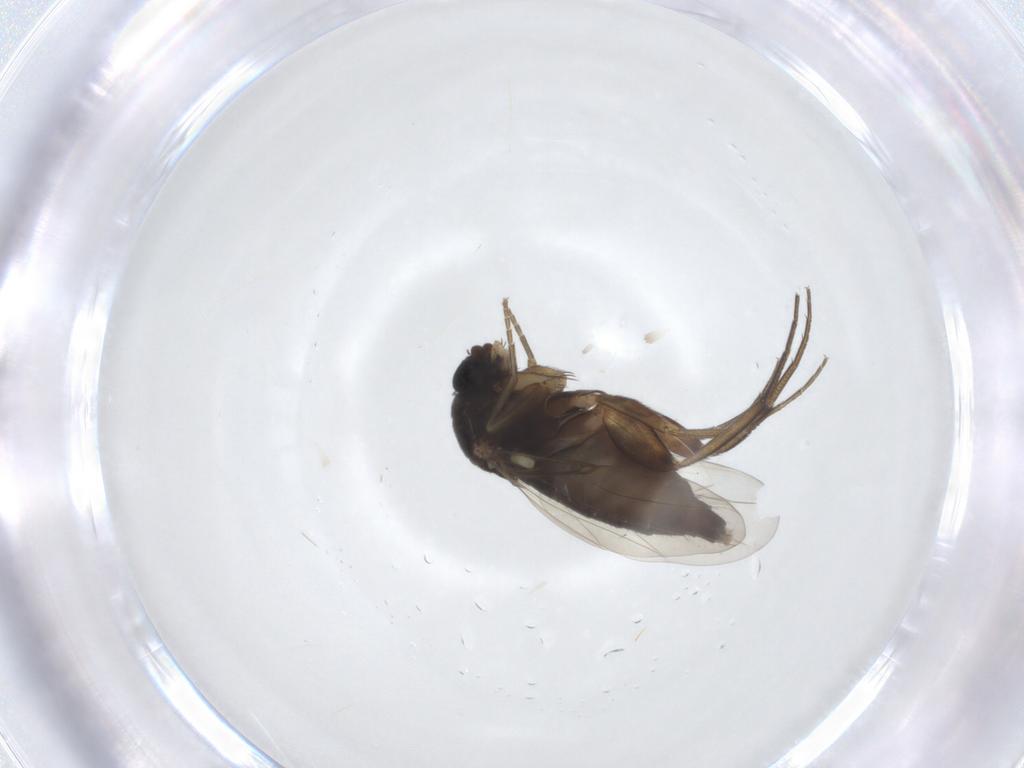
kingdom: Animalia
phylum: Arthropoda
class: Insecta
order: Diptera
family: Phoridae
